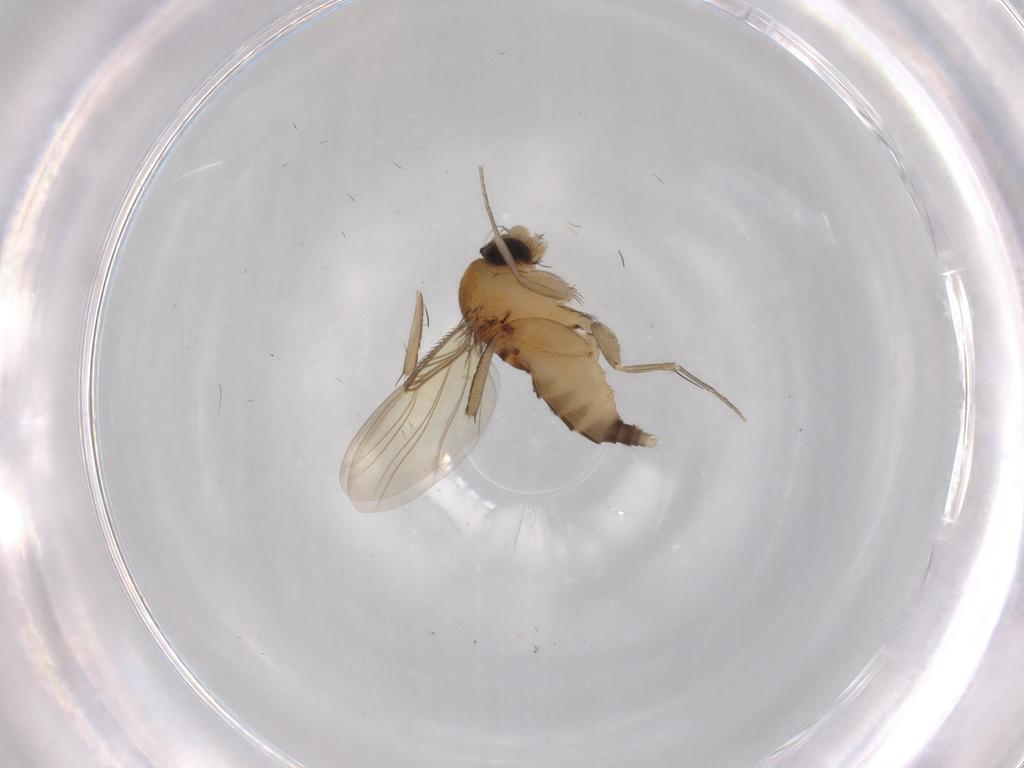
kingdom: Animalia
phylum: Arthropoda
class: Insecta
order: Diptera
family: Phoridae
